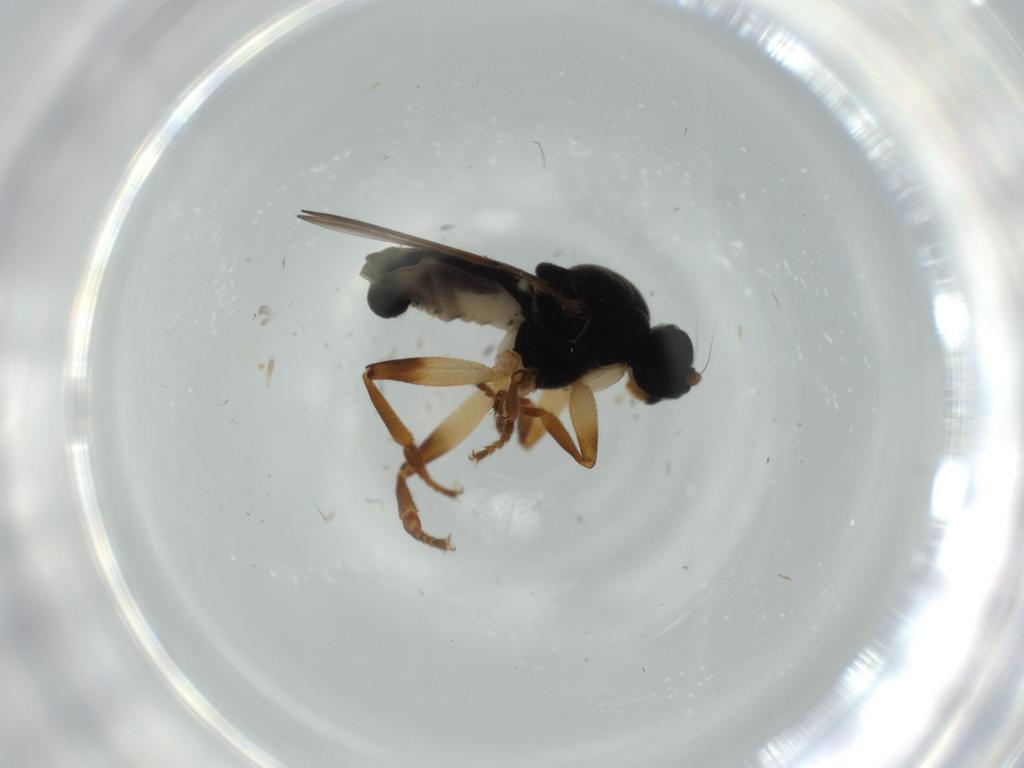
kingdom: Animalia
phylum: Arthropoda
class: Insecta
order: Diptera
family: Sphaeroceridae
